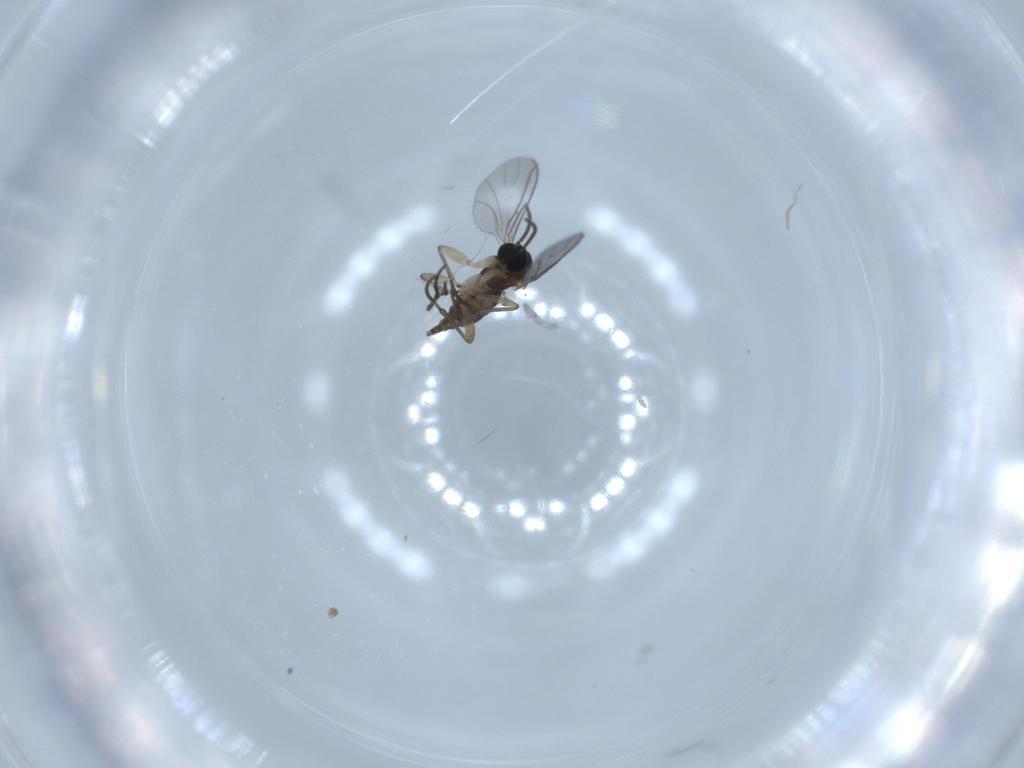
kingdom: Animalia
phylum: Arthropoda
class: Insecta
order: Diptera
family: Sciaridae
